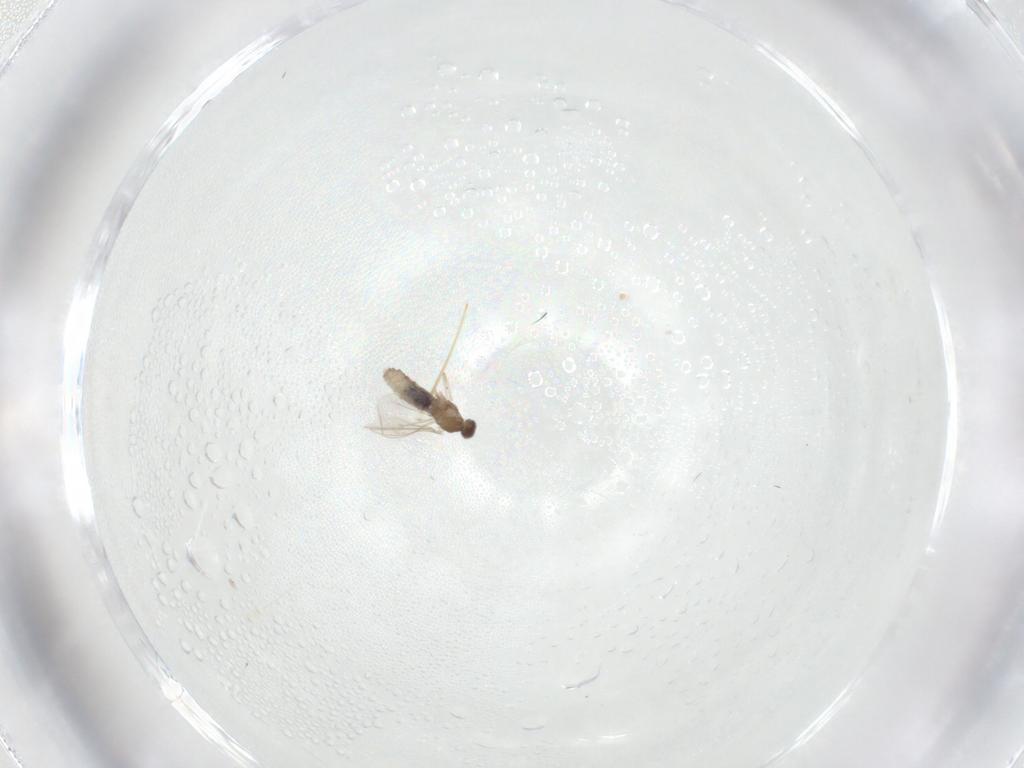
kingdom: Animalia
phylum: Arthropoda
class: Insecta
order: Diptera
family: Cecidomyiidae
